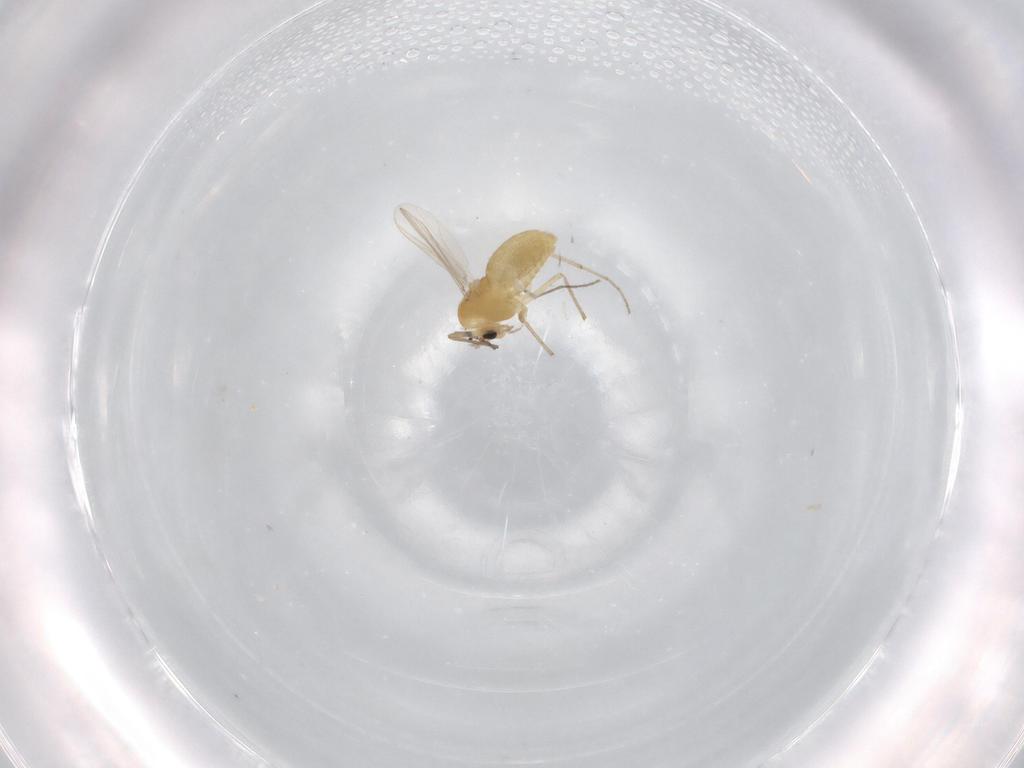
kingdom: Animalia
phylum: Arthropoda
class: Insecta
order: Diptera
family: Chironomidae
